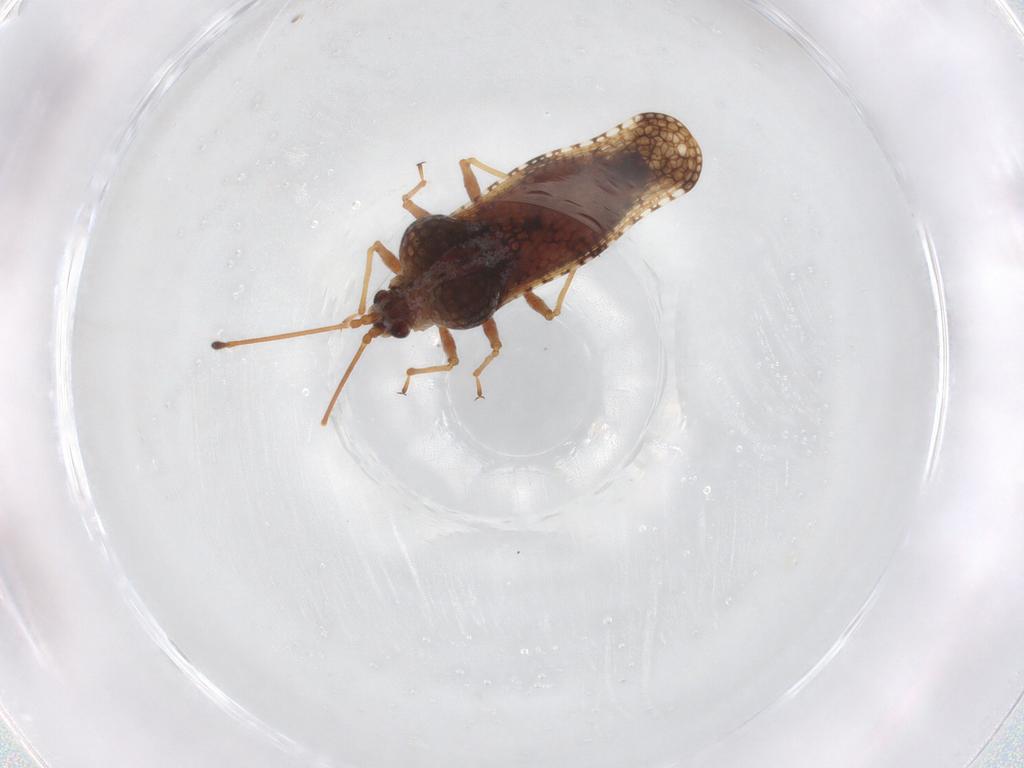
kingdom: Animalia
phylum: Arthropoda
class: Insecta
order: Hemiptera
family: Tingidae
